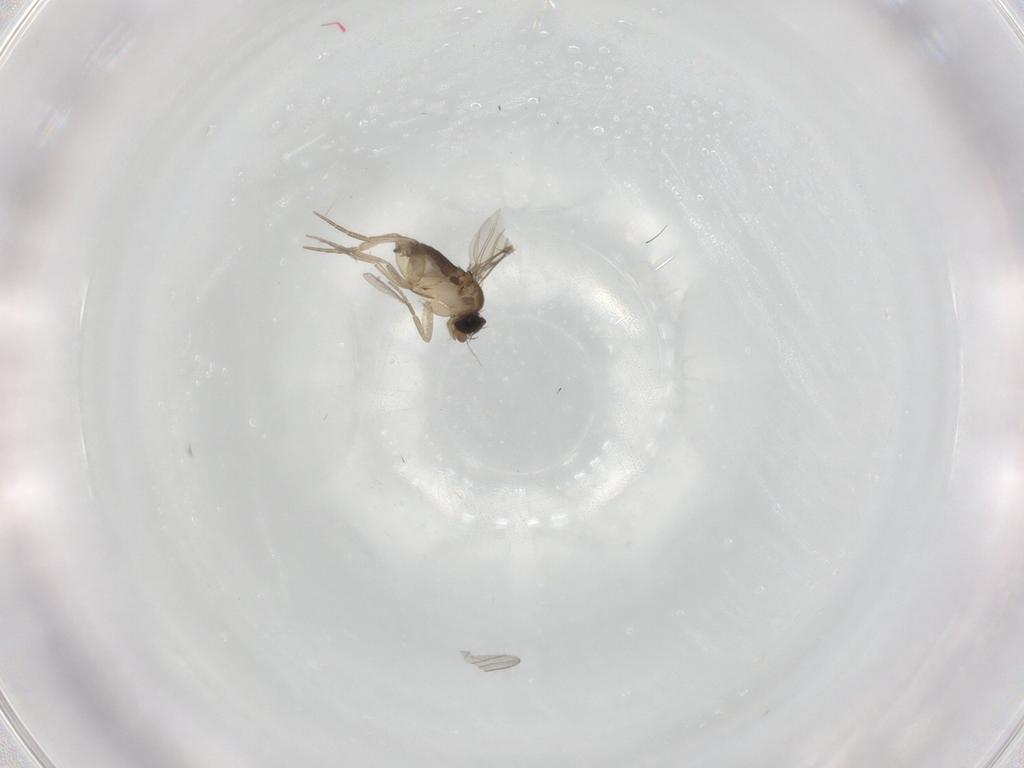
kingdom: Animalia
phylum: Arthropoda
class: Insecta
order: Diptera
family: Phoridae
